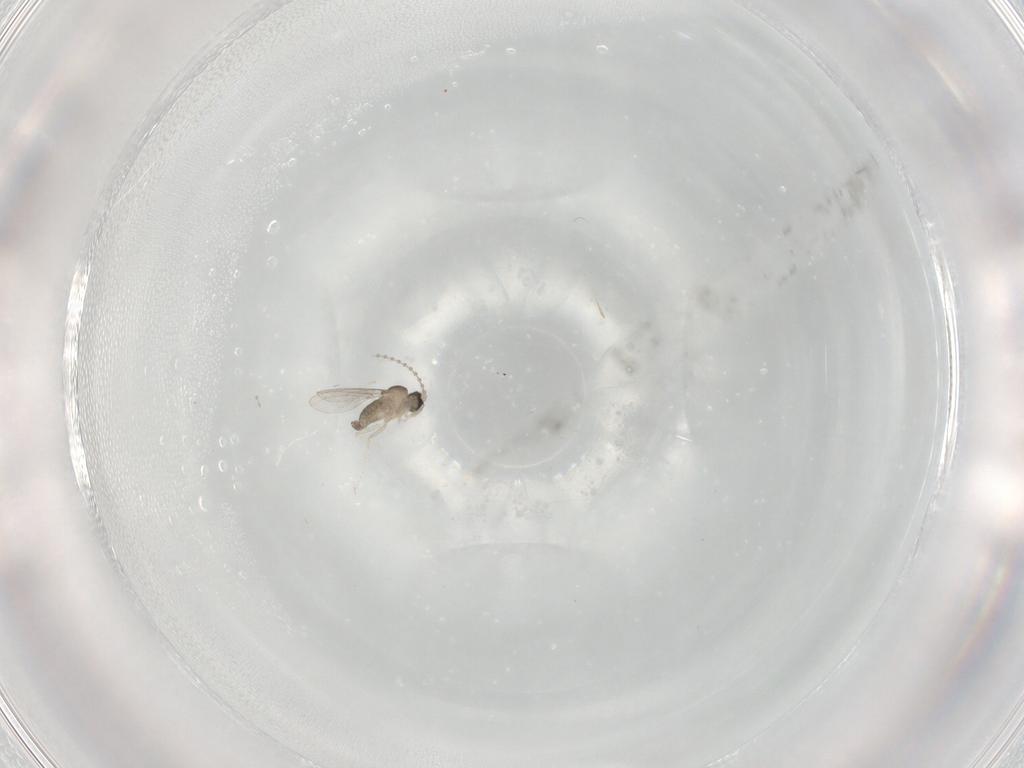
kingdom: Animalia
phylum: Arthropoda
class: Insecta
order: Diptera
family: Cecidomyiidae
